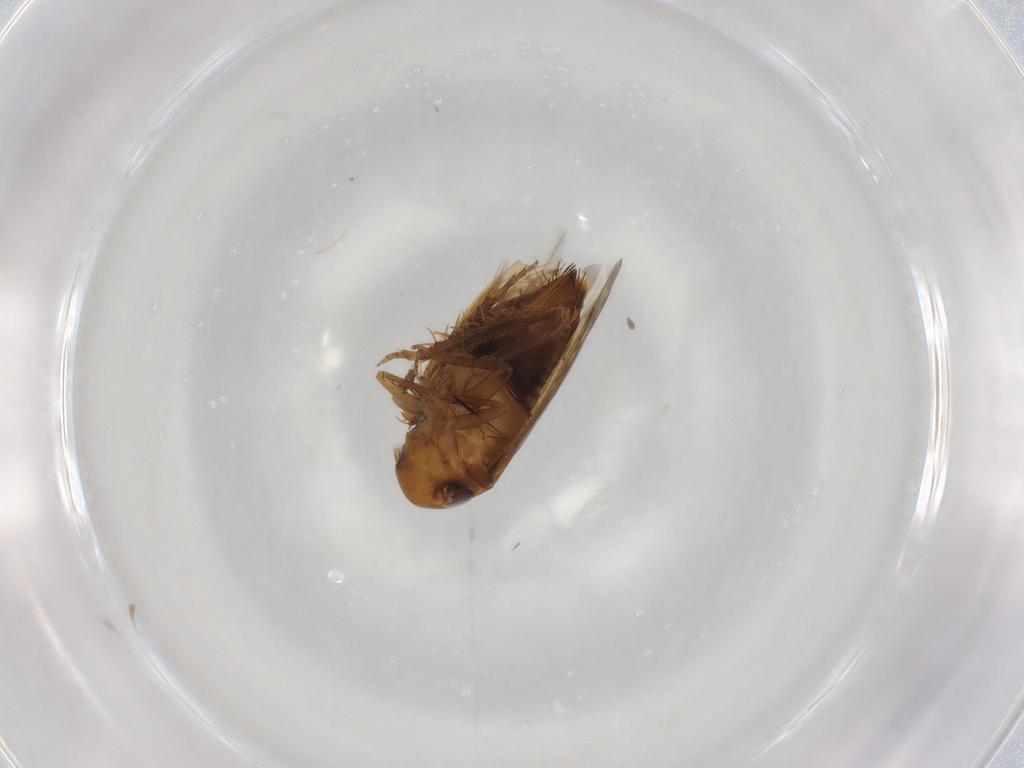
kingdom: Animalia
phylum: Arthropoda
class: Insecta
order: Hemiptera
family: Cicadellidae
